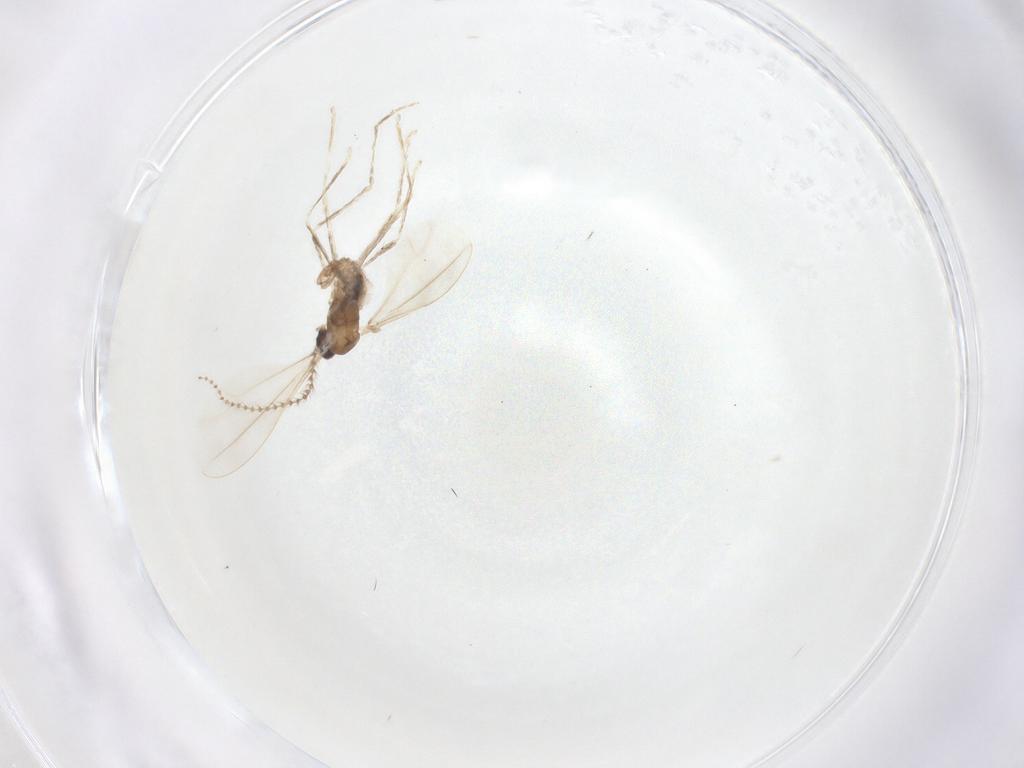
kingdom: Animalia
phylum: Arthropoda
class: Insecta
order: Diptera
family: Cecidomyiidae
